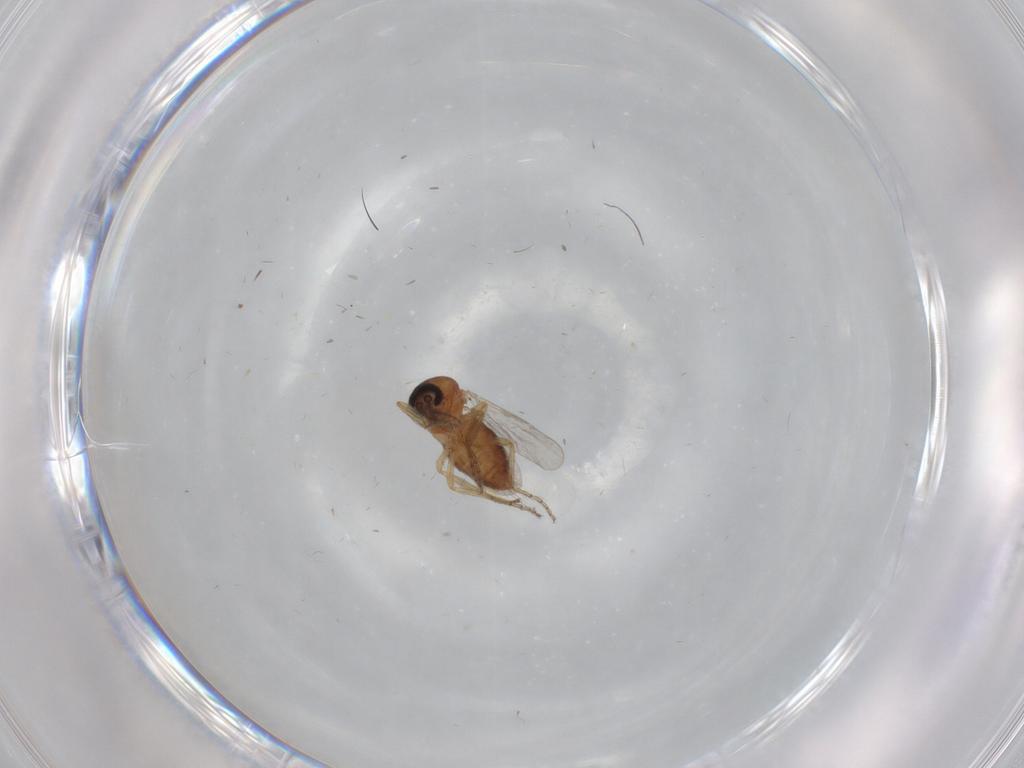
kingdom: Animalia
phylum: Arthropoda
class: Insecta
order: Diptera
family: Ceratopogonidae
